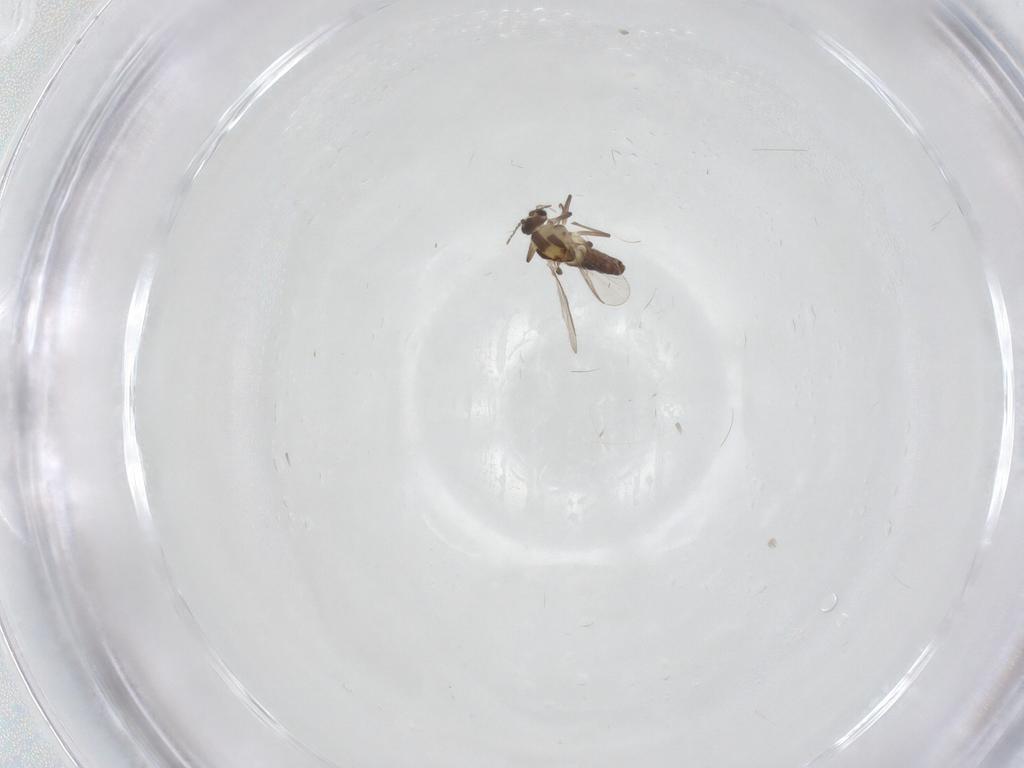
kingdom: Animalia
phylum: Arthropoda
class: Insecta
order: Diptera
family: Chironomidae
